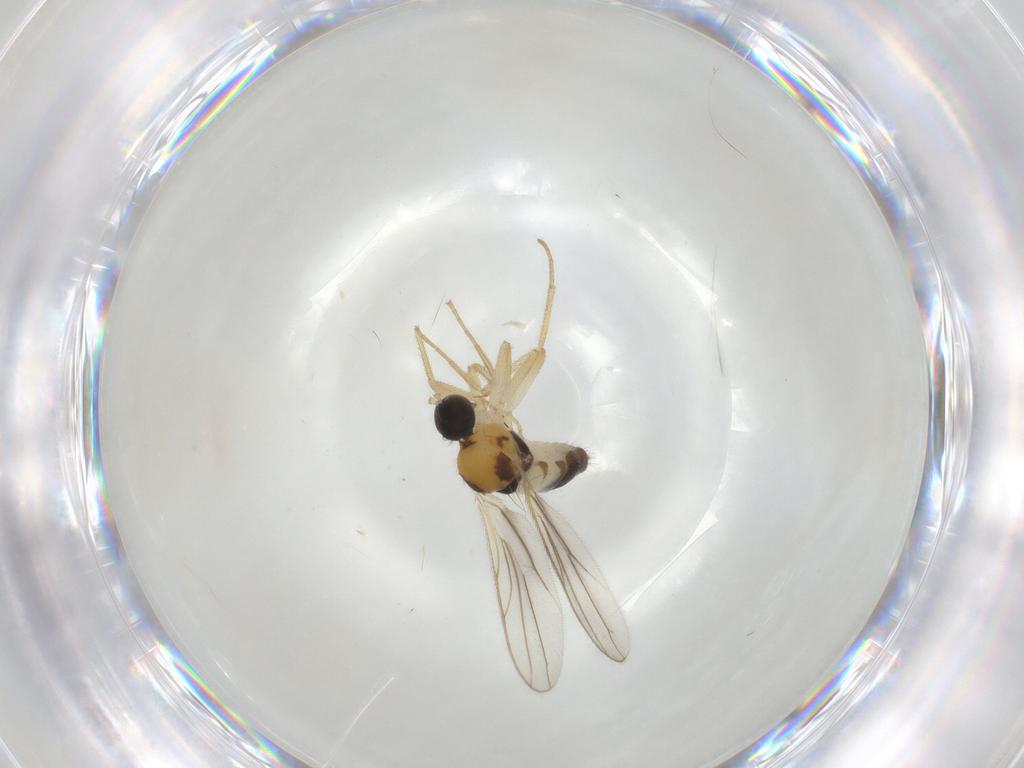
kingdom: Animalia
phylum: Arthropoda
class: Insecta
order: Diptera
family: Hybotidae
